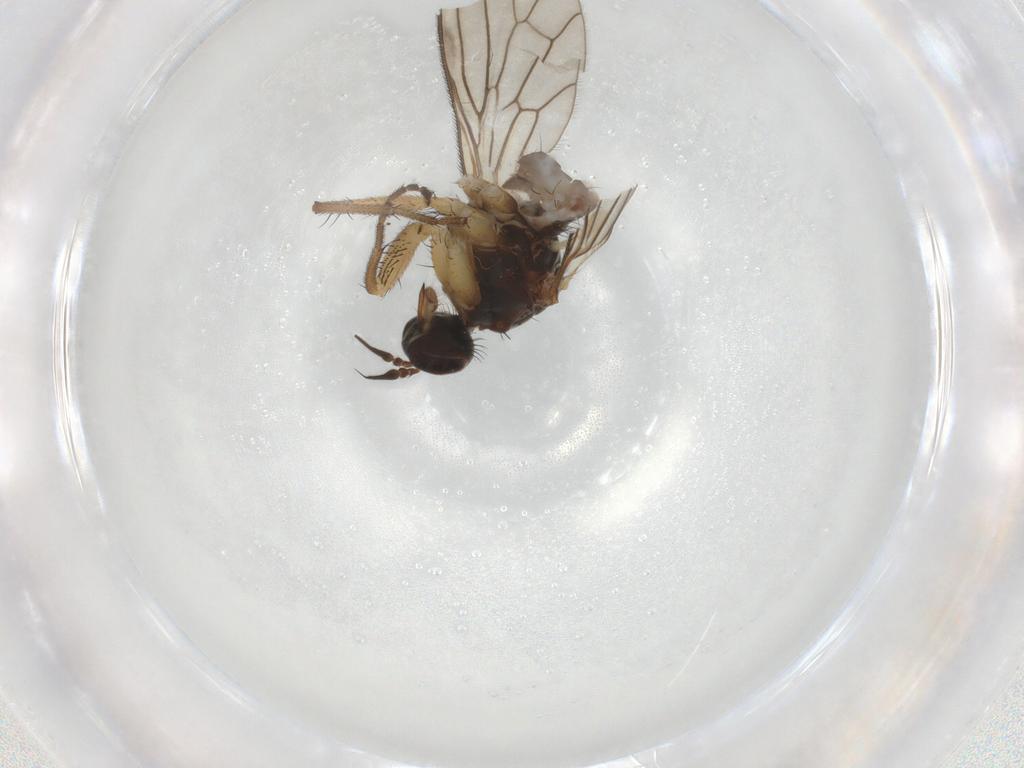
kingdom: Animalia
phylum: Arthropoda
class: Insecta
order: Diptera
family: Empididae
